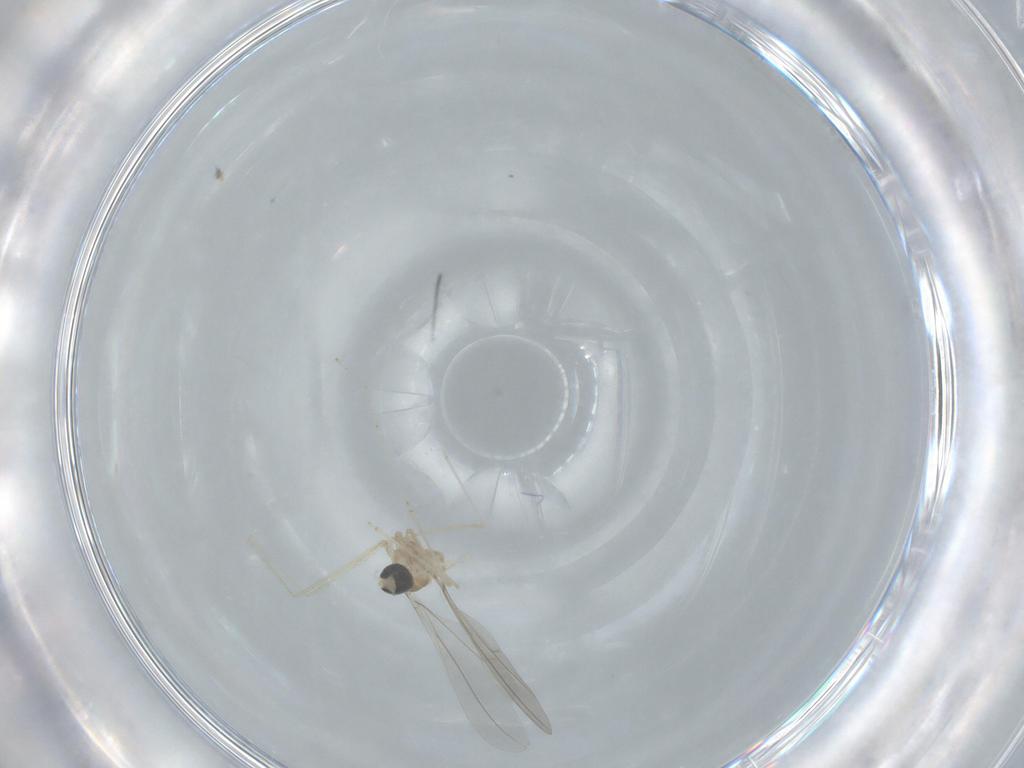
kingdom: Animalia
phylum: Arthropoda
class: Insecta
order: Diptera
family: Cecidomyiidae
